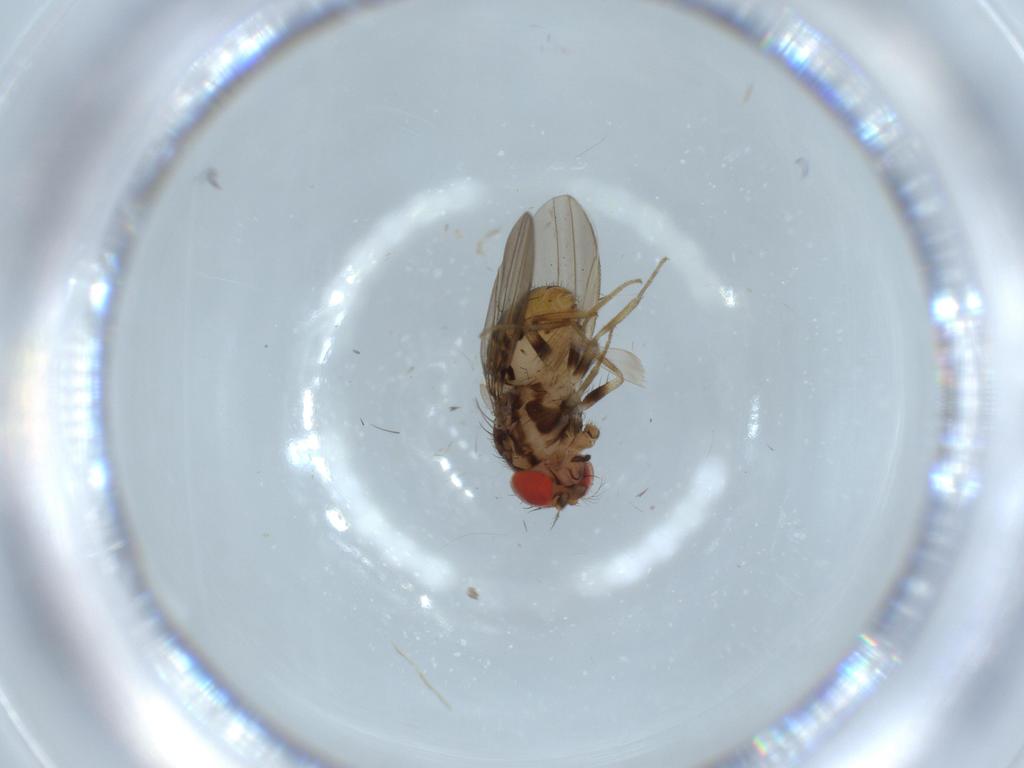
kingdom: Animalia
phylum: Arthropoda
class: Insecta
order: Diptera
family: Drosophilidae
